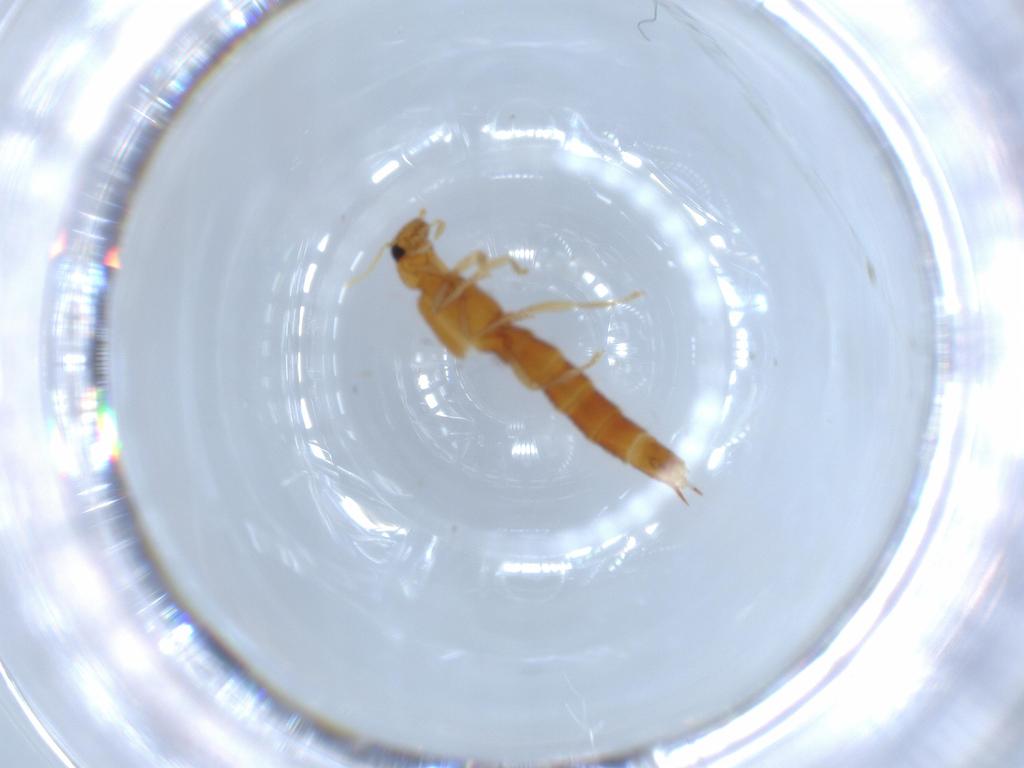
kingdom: Animalia
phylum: Arthropoda
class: Insecta
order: Coleoptera
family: Staphylinidae
